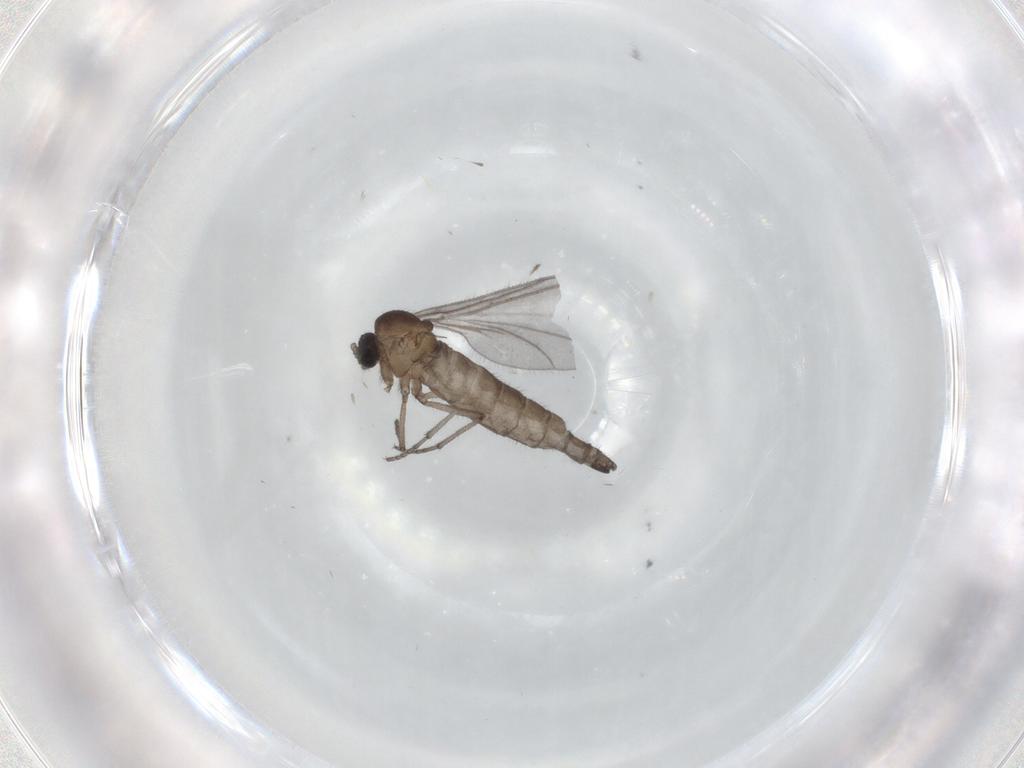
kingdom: Animalia
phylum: Arthropoda
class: Insecta
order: Diptera
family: Sciaridae
